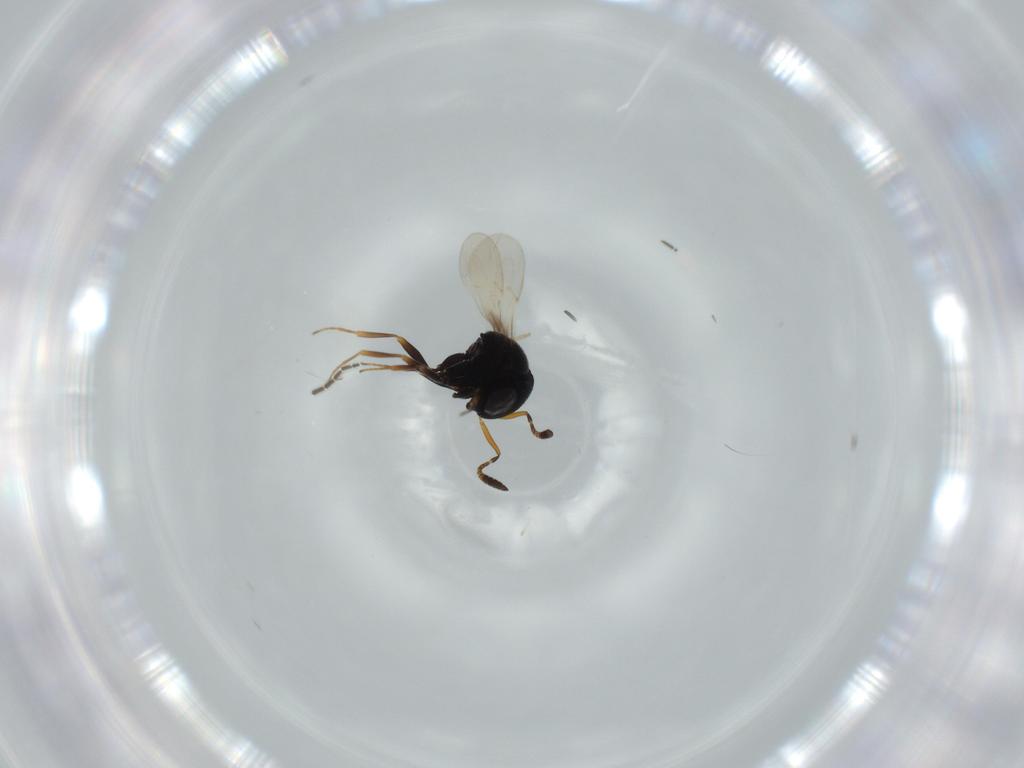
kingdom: Animalia
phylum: Arthropoda
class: Insecta
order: Hymenoptera
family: Scelionidae
